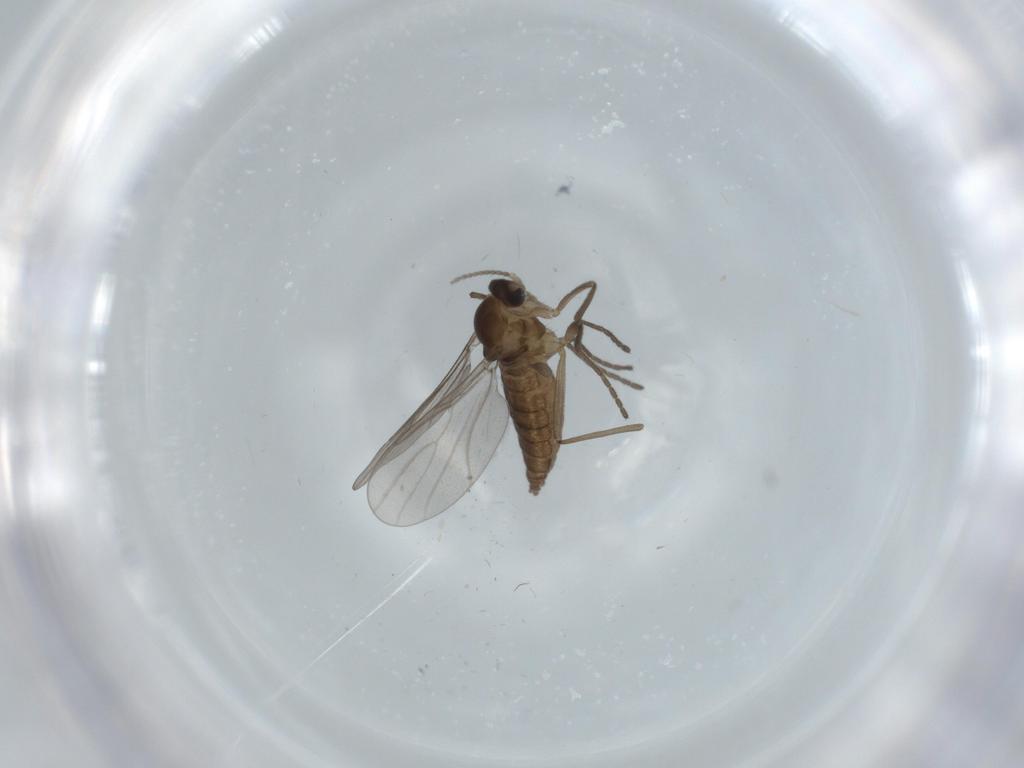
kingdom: Animalia
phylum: Arthropoda
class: Insecta
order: Diptera
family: Cecidomyiidae
